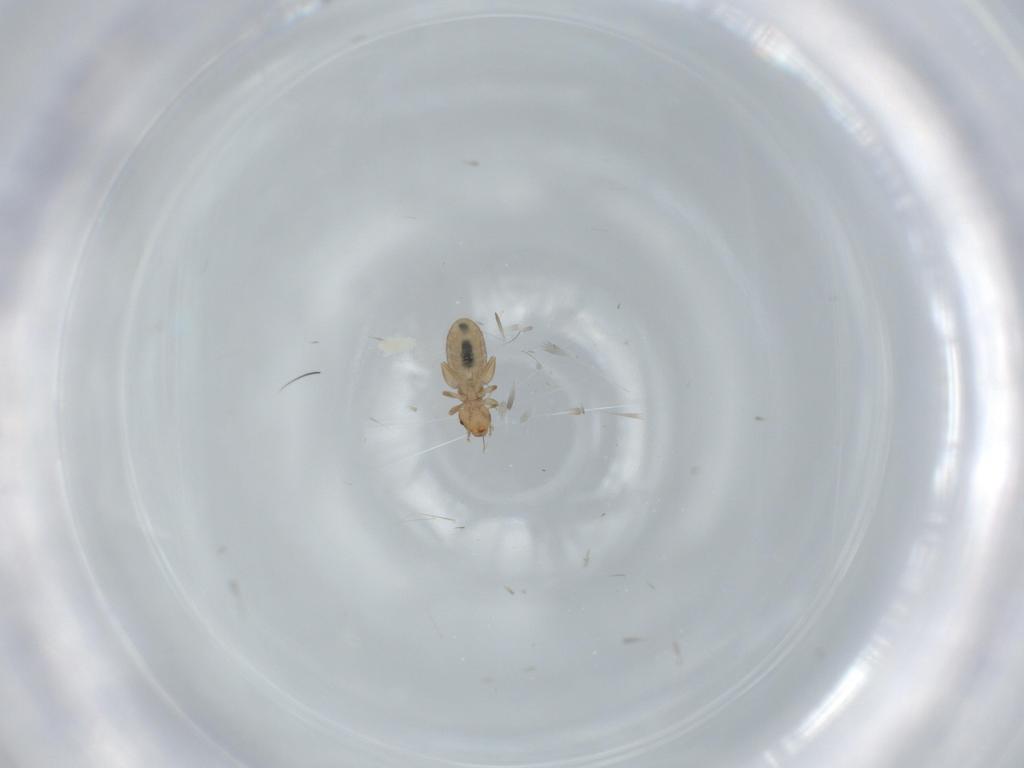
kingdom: Animalia
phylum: Arthropoda
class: Insecta
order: Psocodea
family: Liposcelididae
